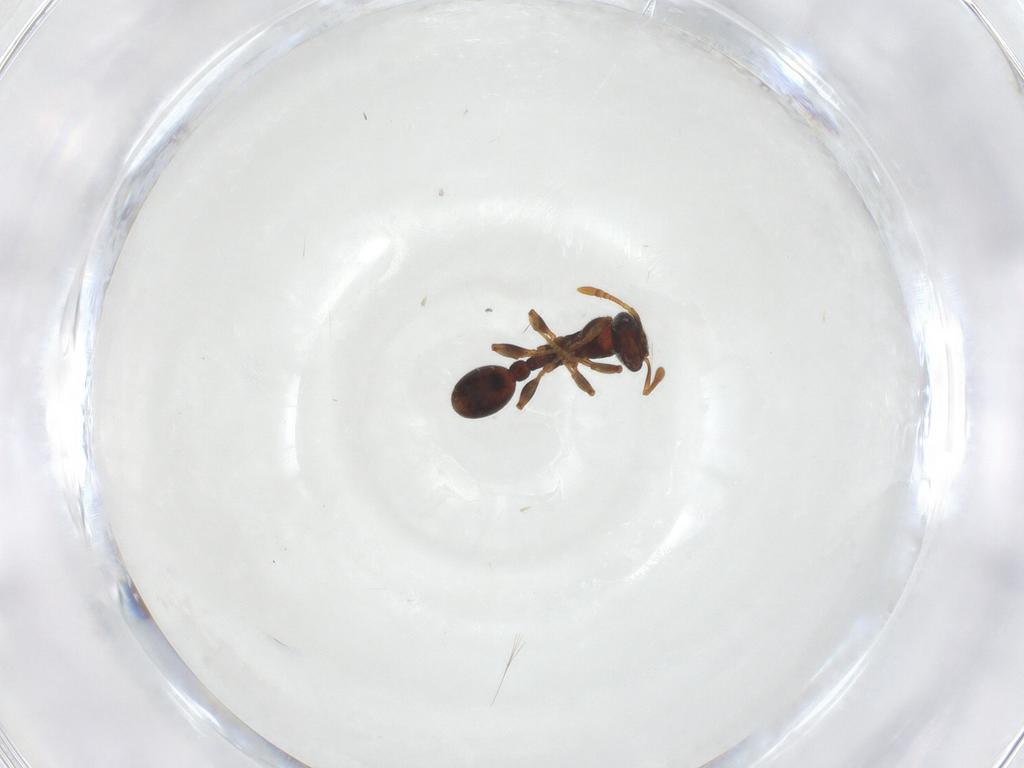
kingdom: Animalia
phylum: Arthropoda
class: Insecta
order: Hymenoptera
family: Formicidae
